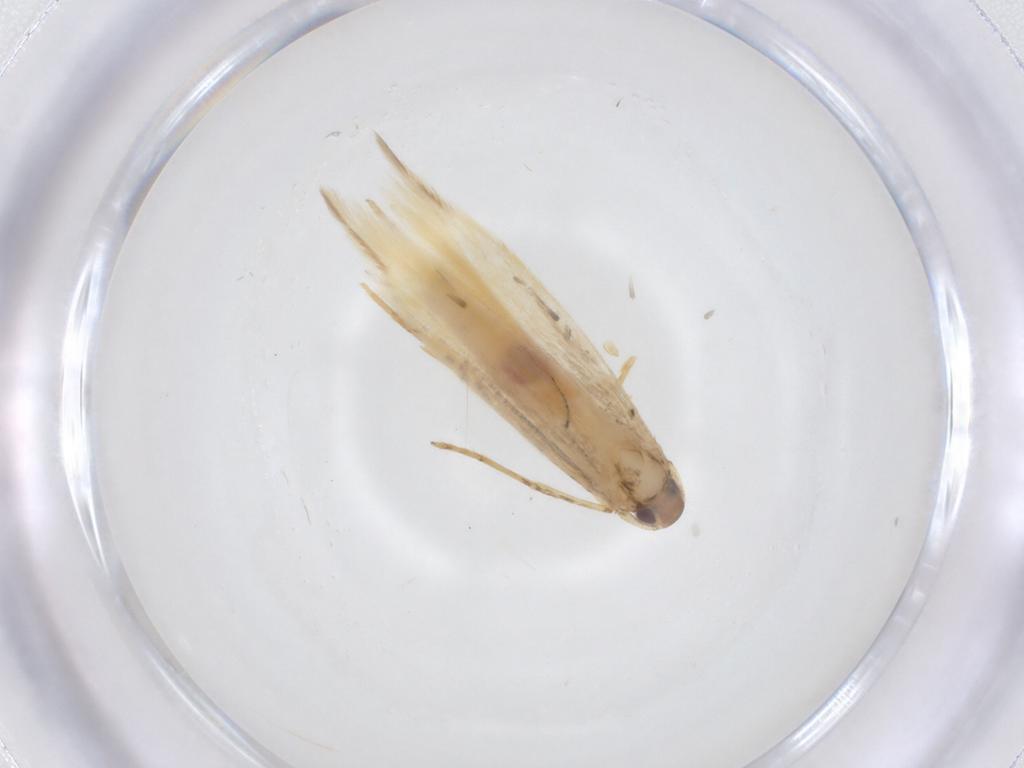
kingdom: Animalia
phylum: Arthropoda
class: Insecta
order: Lepidoptera
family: Cosmopterigidae
